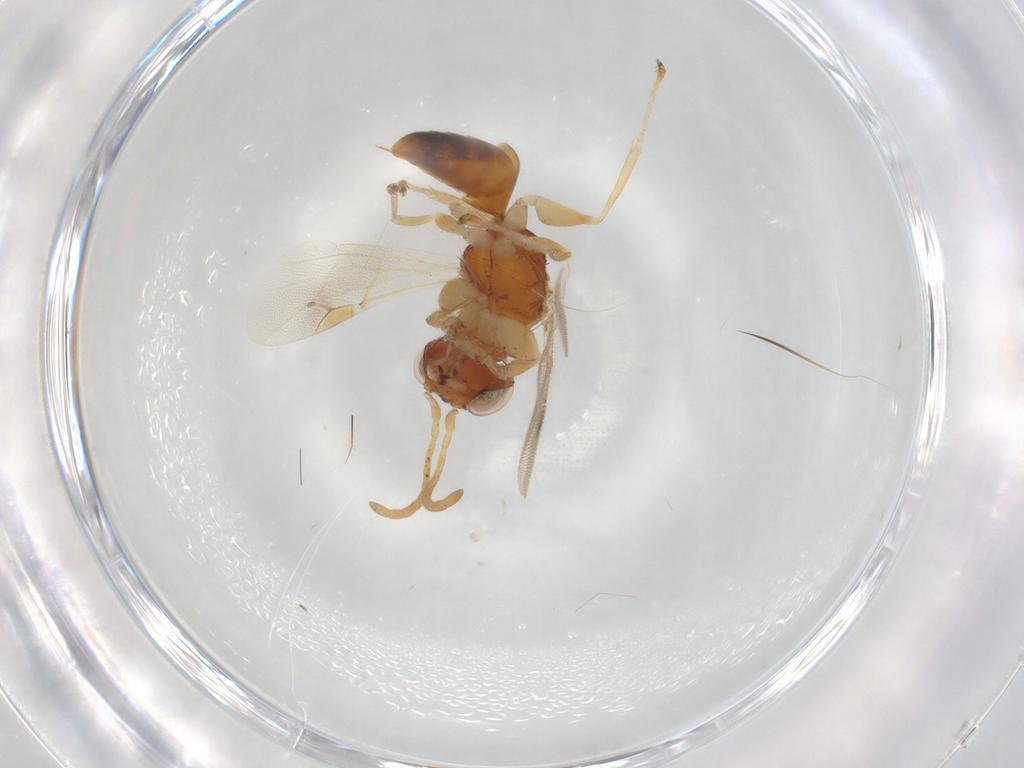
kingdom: Animalia
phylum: Arthropoda
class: Insecta
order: Hymenoptera
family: Dryinidae
